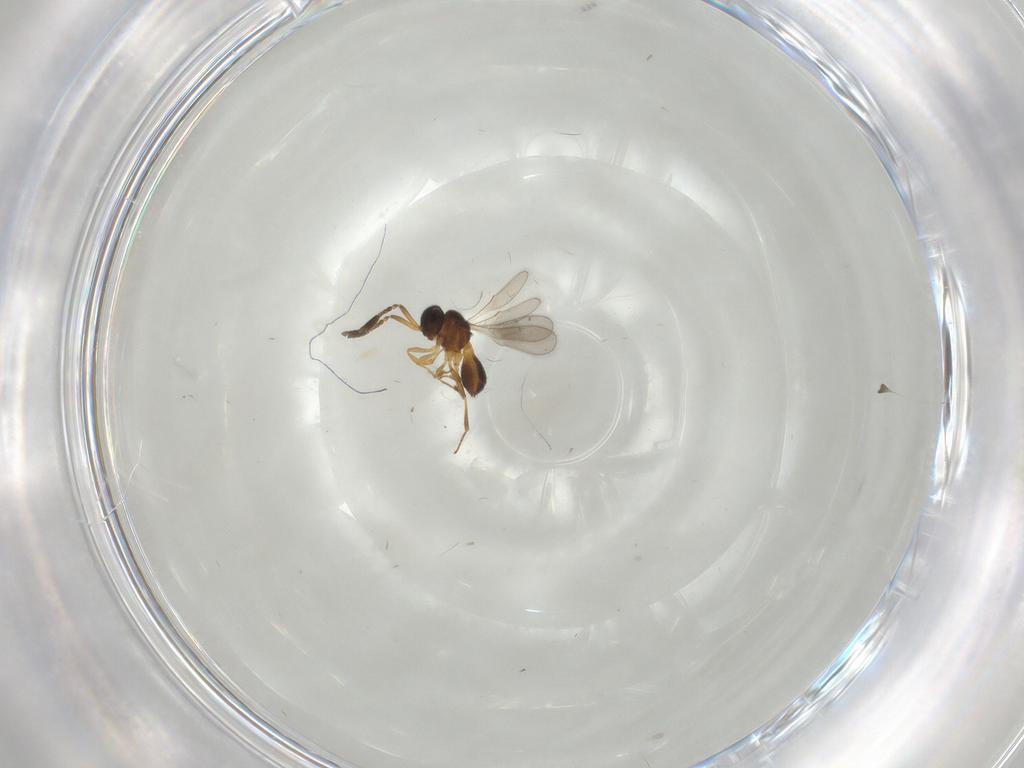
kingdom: Animalia
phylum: Arthropoda
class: Insecta
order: Hymenoptera
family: Scelionidae
